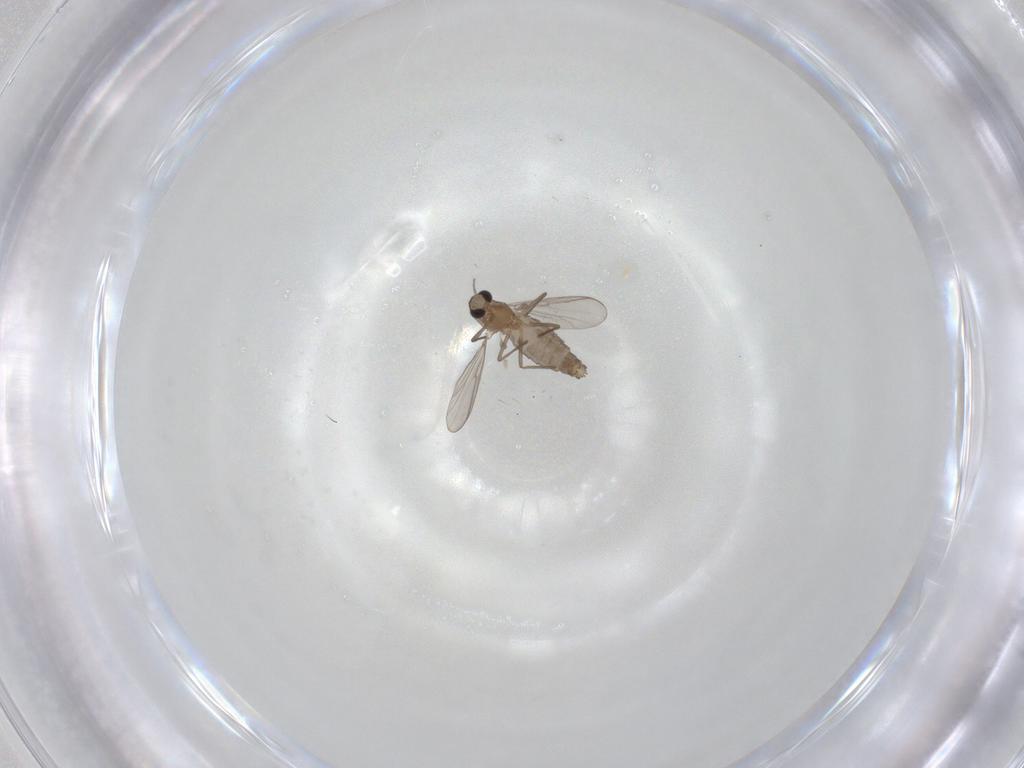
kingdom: Animalia
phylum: Arthropoda
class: Insecta
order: Diptera
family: Chironomidae
